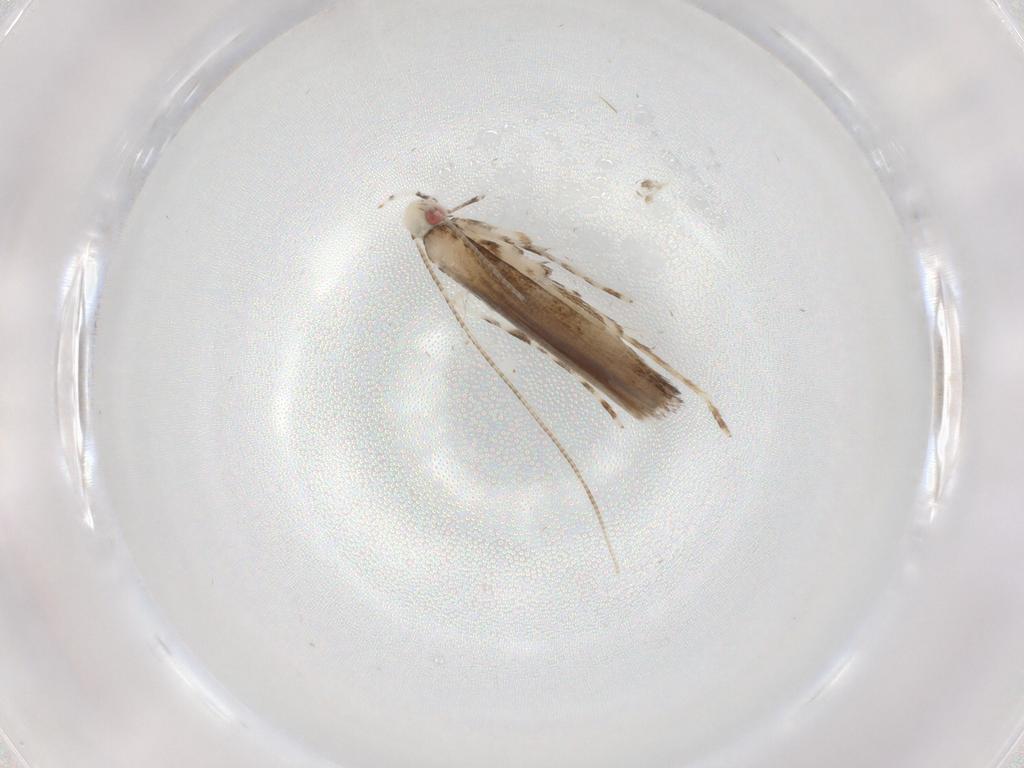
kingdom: Animalia
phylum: Arthropoda
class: Insecta
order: Lepidoptera
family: Gracillariidae
